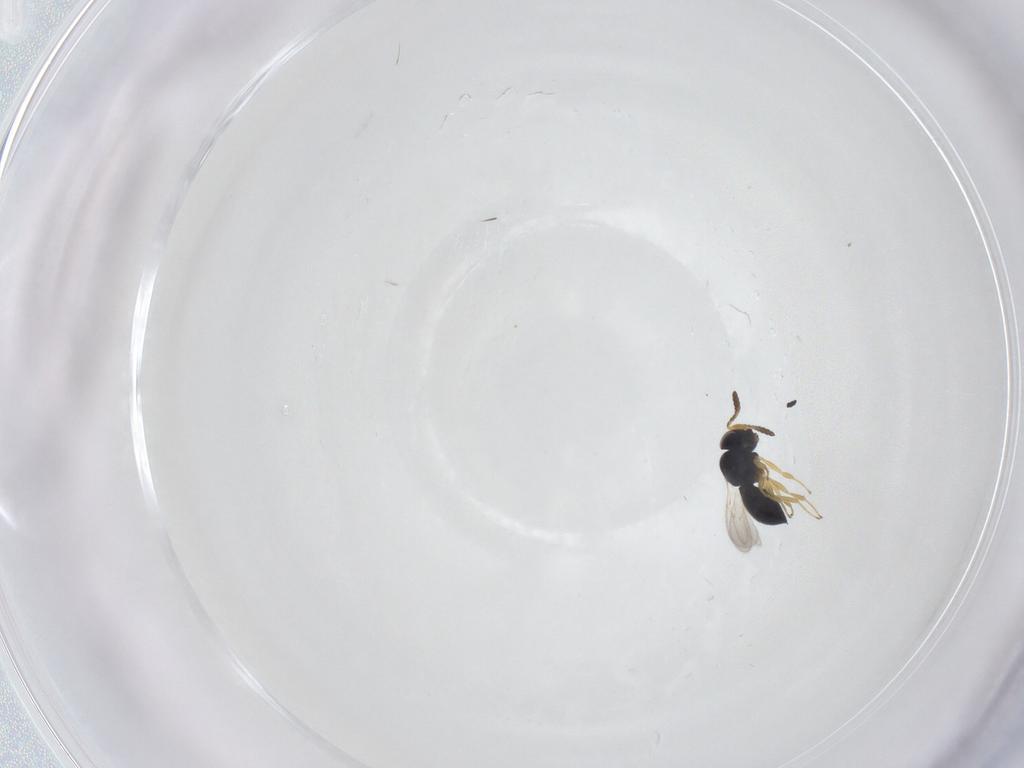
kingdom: Animalia
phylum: Arthropoda
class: Insecta
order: Hymenoptera
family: Scelionidae
